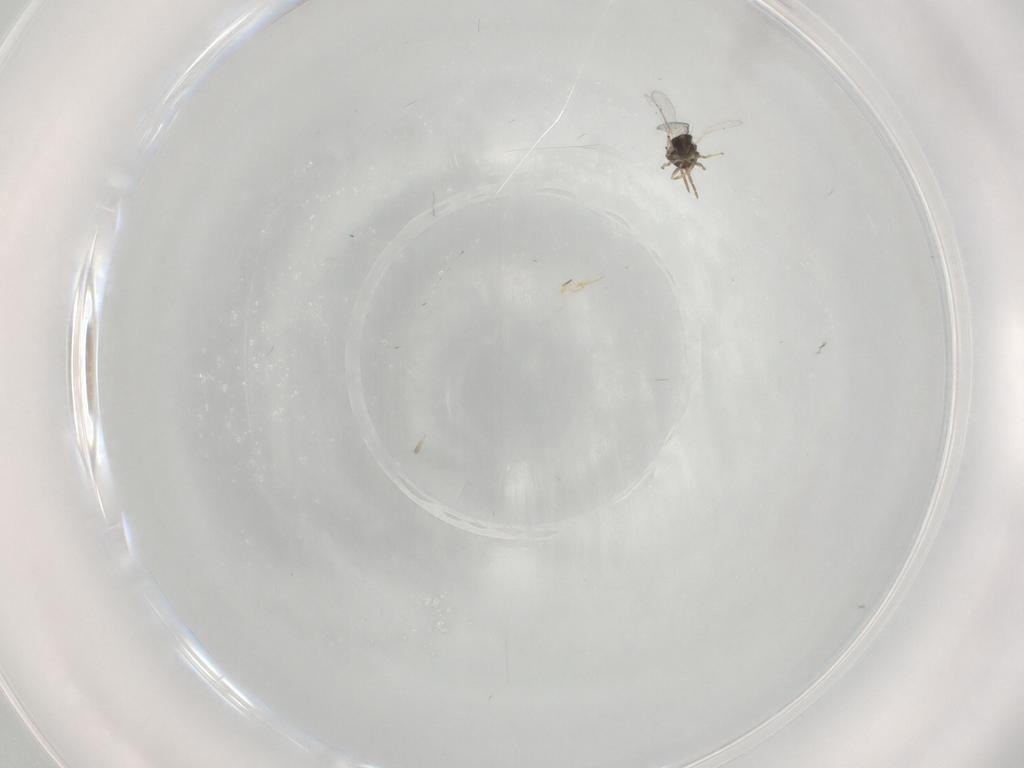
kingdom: Animalia
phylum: Arthropoda
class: Insecta
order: Hymenoptera
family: Aphelinidae
